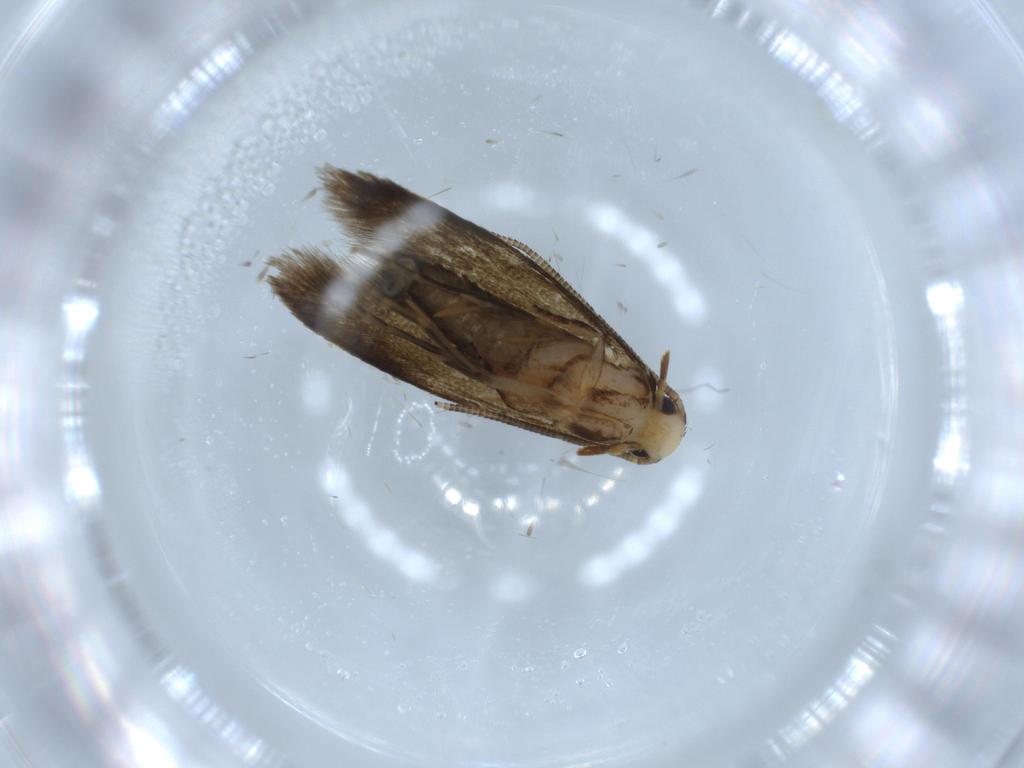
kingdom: Animalia
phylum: Arthropoda
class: Insecta
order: Lepidoptera
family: Tineidae
